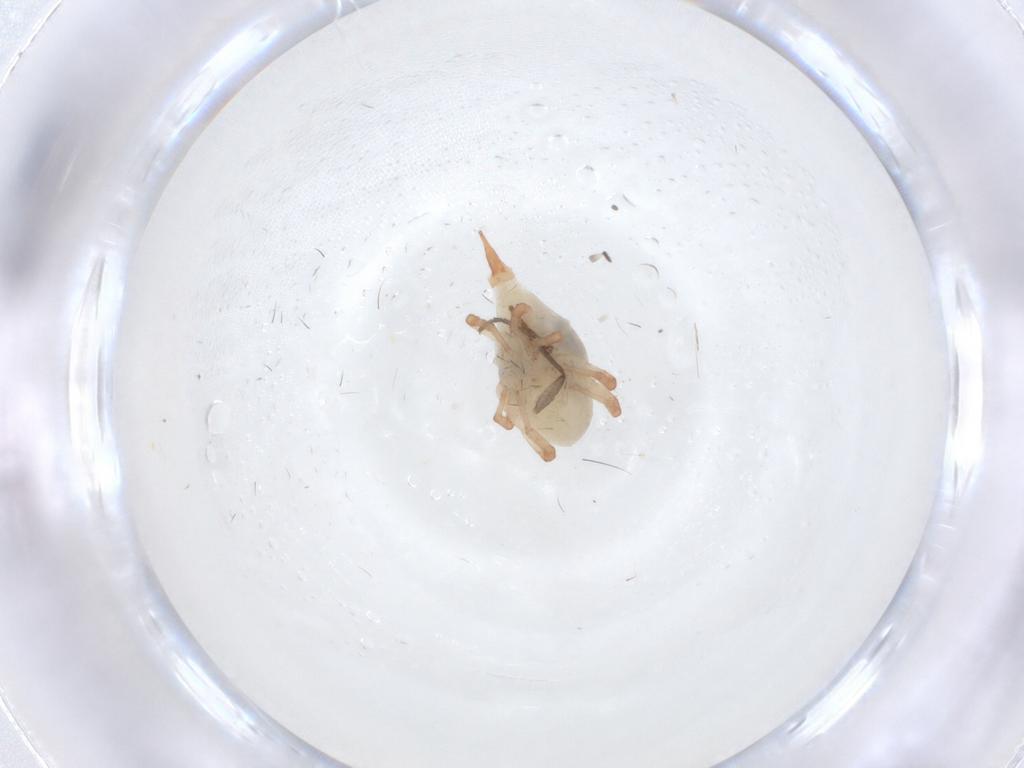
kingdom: Animalia
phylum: Arthropoda
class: Arachnida
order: Trombidiformes
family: Bdellidae
